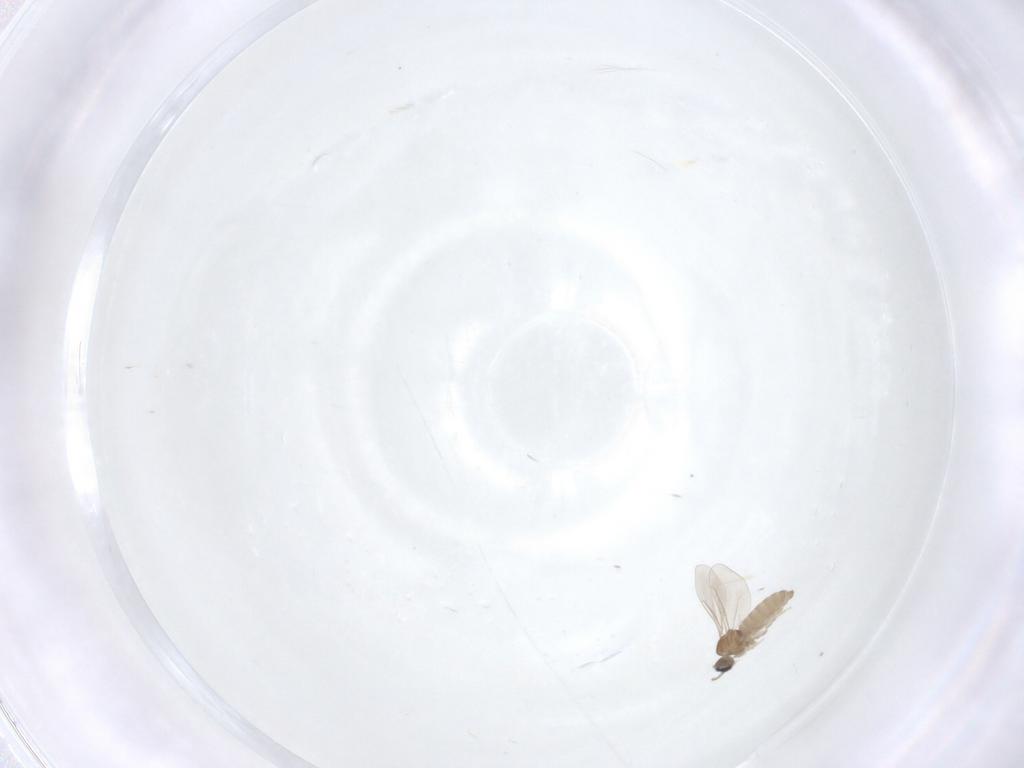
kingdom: Animalia
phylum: Arthropoda
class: Insecta
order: Diptera
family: Cecidomyiidae
